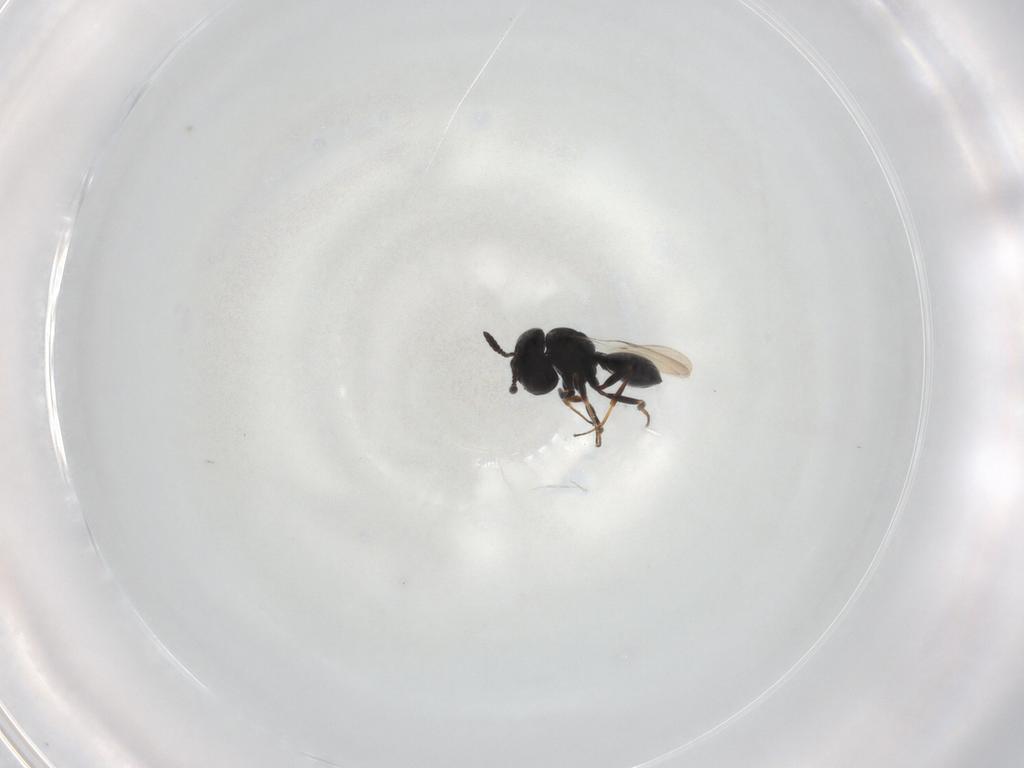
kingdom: Animalia
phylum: Arthropoda
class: Insecta
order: Hymenoptera
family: Scelionidae
